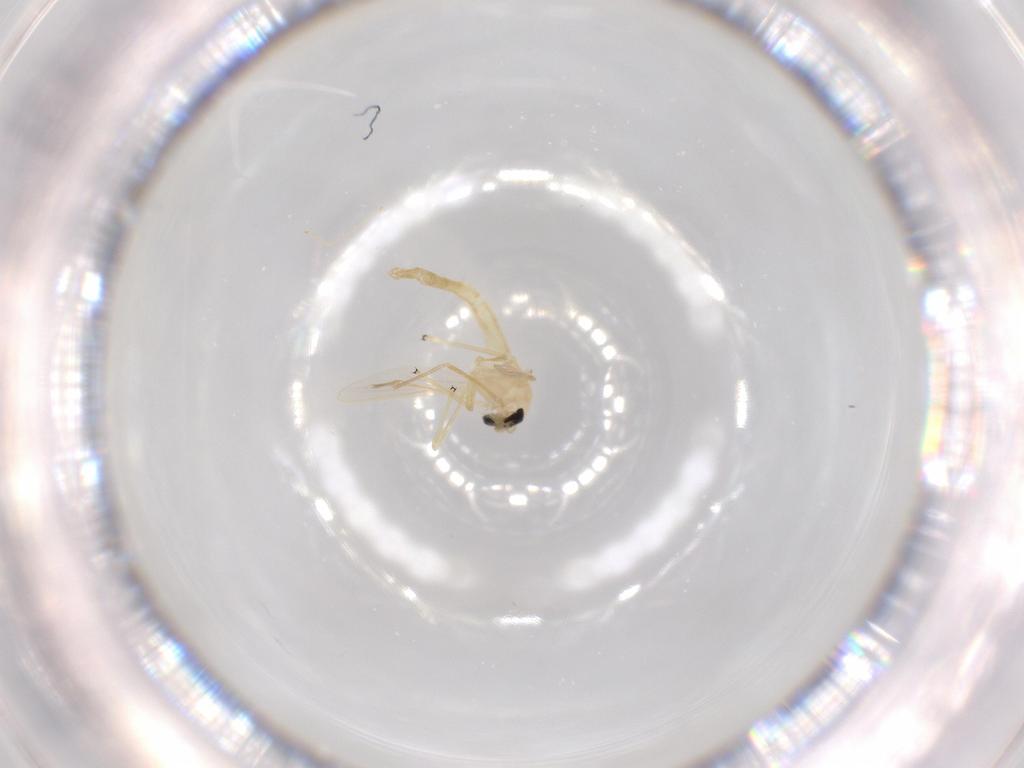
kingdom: Animalia
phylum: Arthropoda
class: Insecta
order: Diptera
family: Chironomidae
